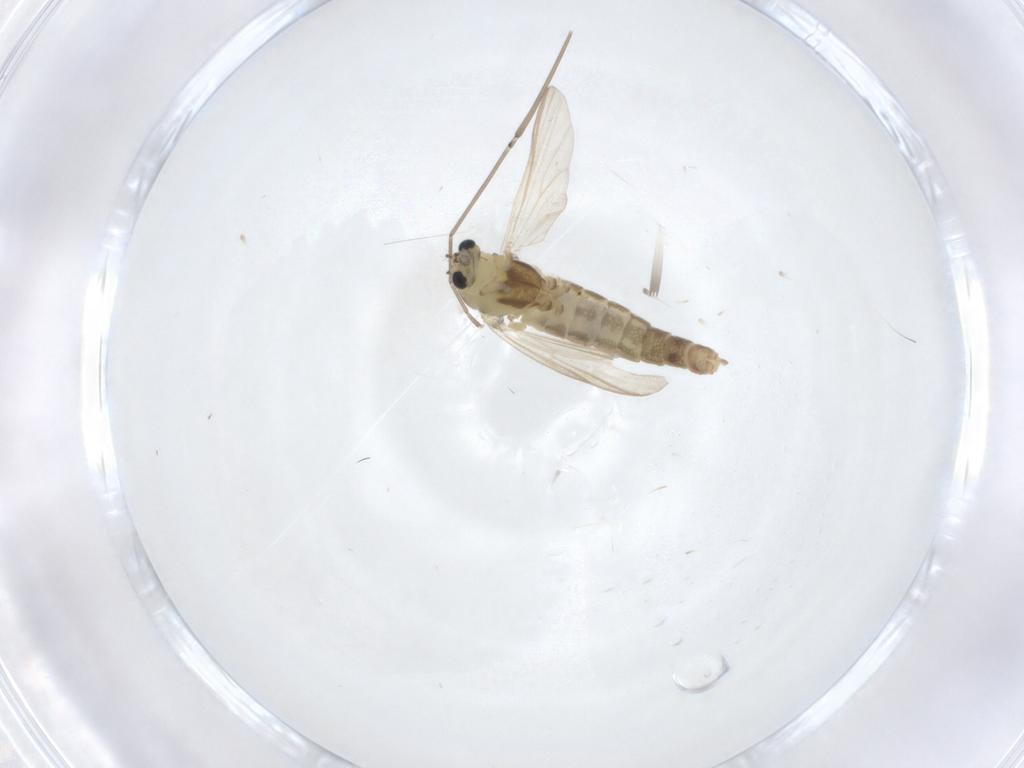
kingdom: Animalia
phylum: Arthropoda
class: Insecta
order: Diptera
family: Chironomidae
